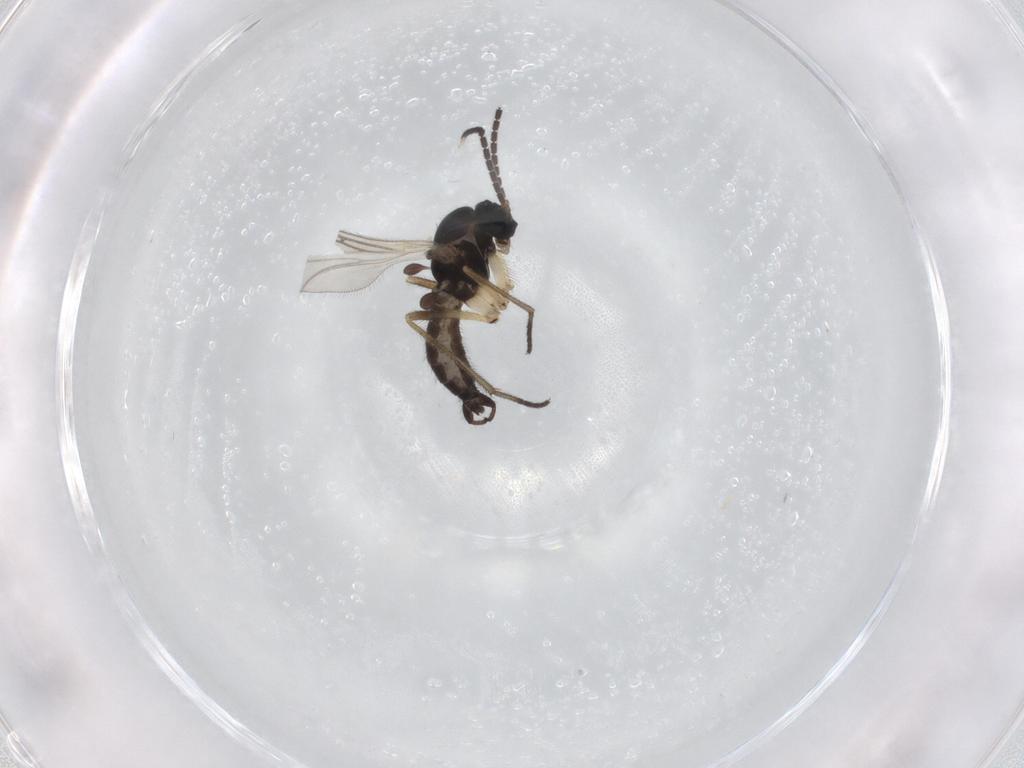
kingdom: Animalia
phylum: Arthropoda
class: Insecta
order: Diptera
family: Sciaridae
